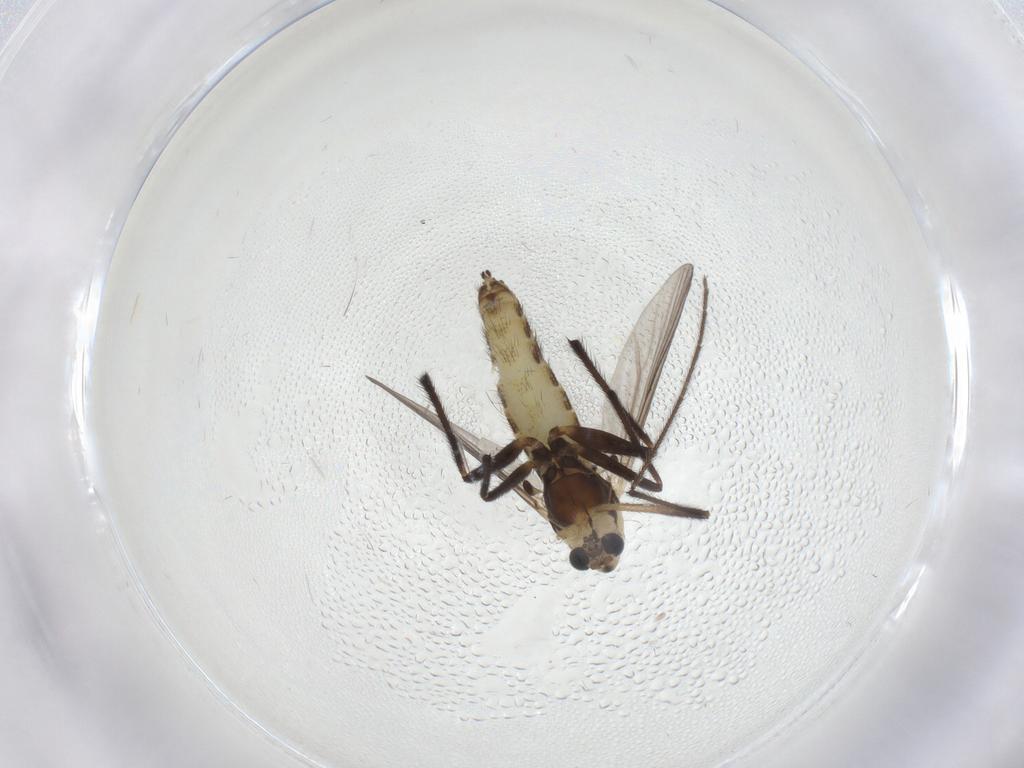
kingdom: Animalia
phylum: Arthropoda
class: Insecta
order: Diptera
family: Chironomidae
